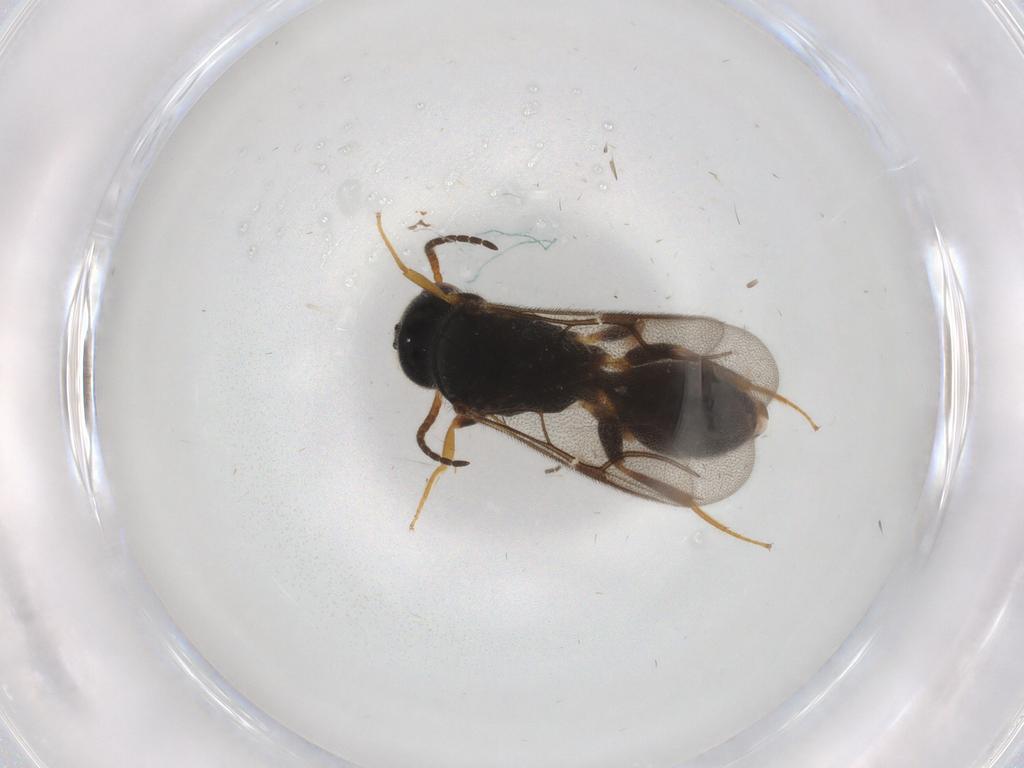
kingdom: Animalia
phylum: Arthropoda
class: Insecta
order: Hymenoptera
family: Bethylidae
